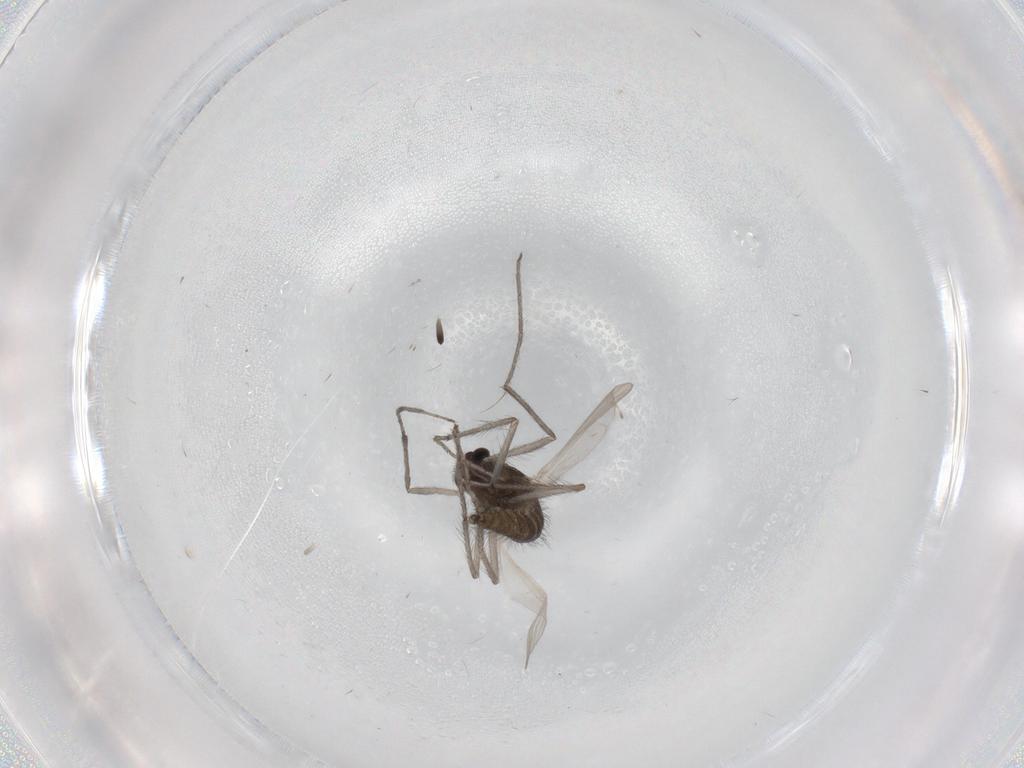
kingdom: Animalia
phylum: Arthropoda
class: Insecta
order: Diptera
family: Chironomidae
